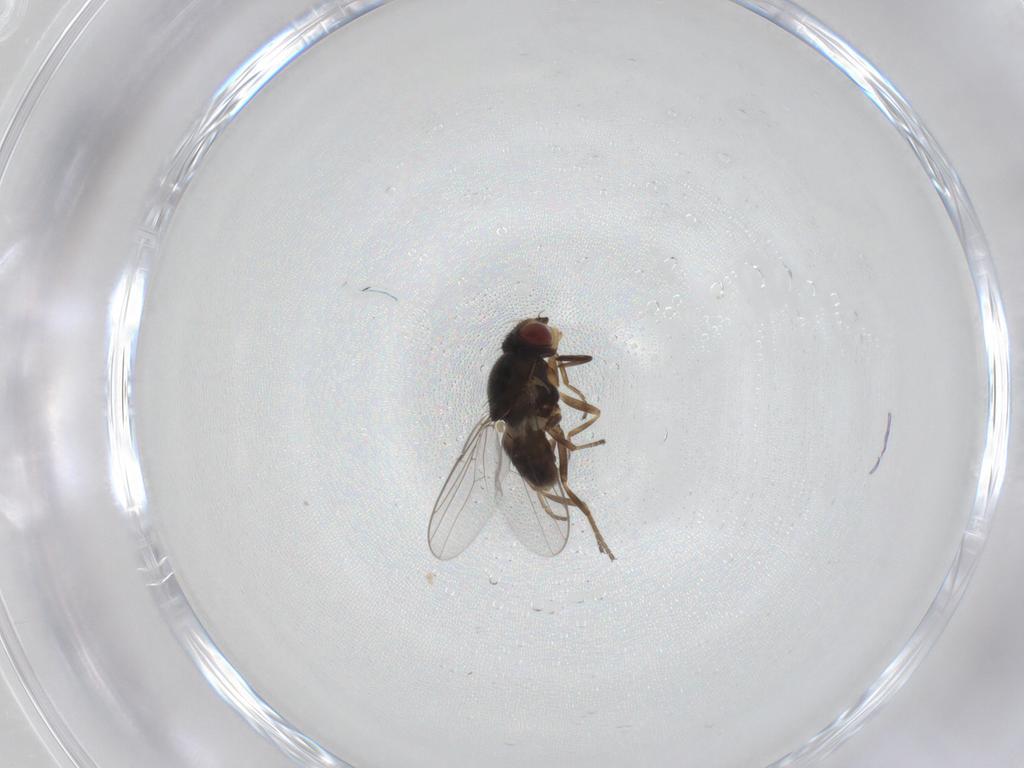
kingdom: Animalia
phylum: Arthropoda
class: Insecta
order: Diptera
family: Chloropidae
